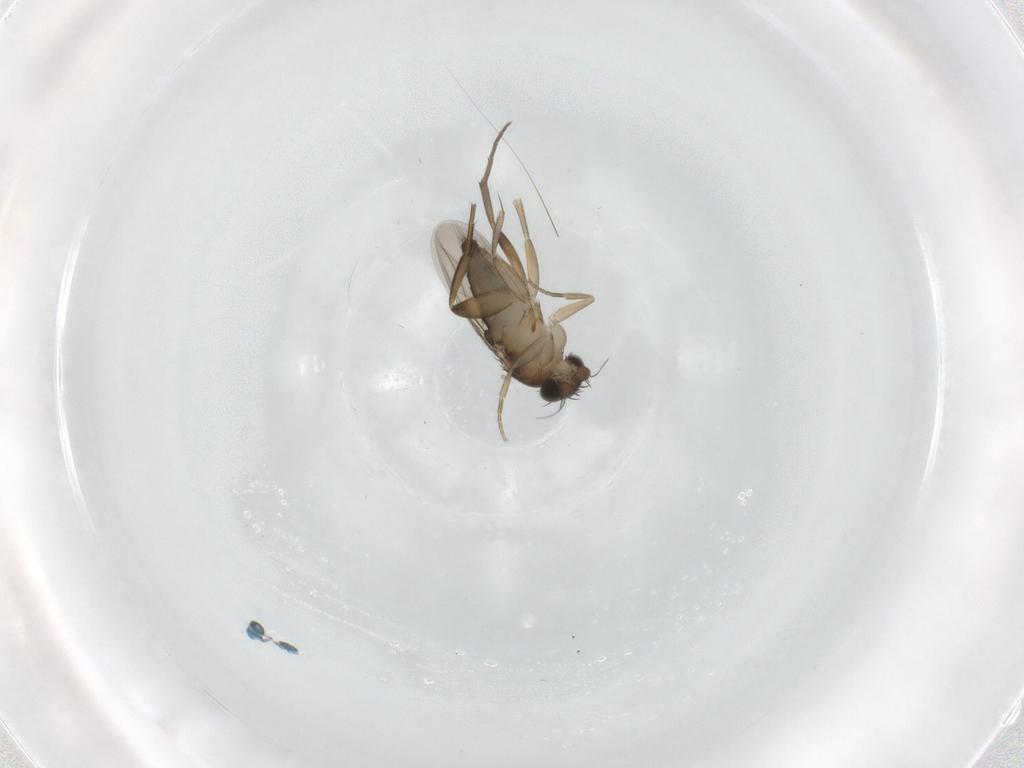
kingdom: Animalia
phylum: Arthropoda
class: Insecta
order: Diptera
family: Phoridae
